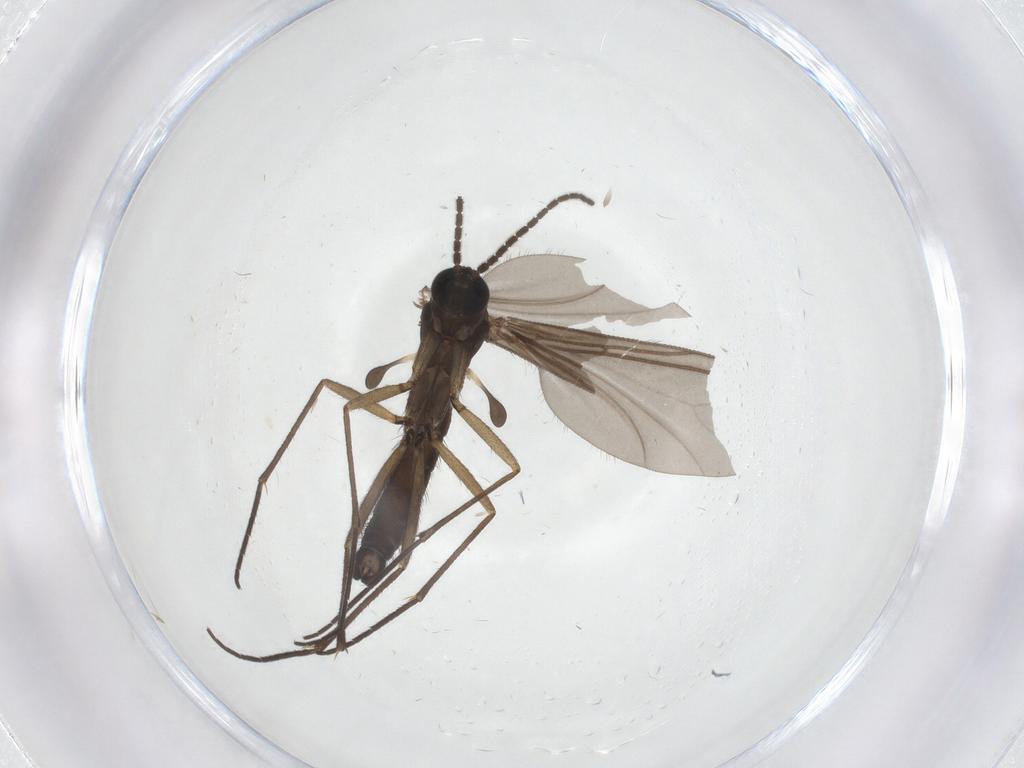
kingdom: Animalia
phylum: Arthropoda
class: Insecta
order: Diptera
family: Sciaridae
